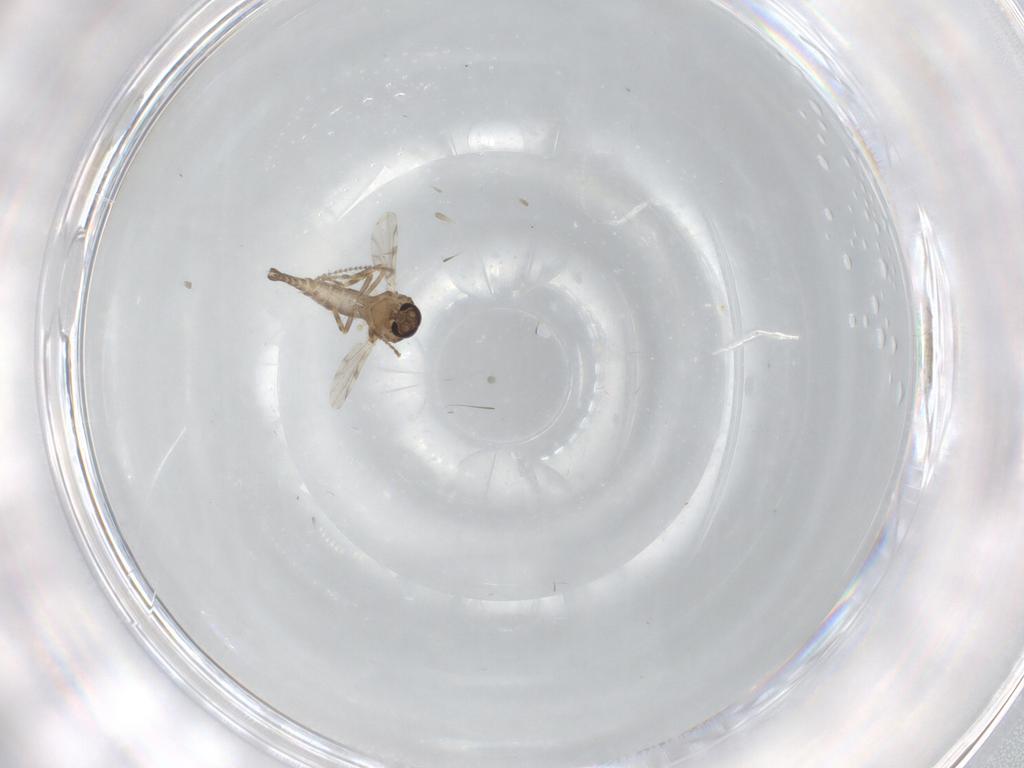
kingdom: Animalia
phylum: Arthropoda
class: Insecta
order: Diptera
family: Ceratopogonidae
